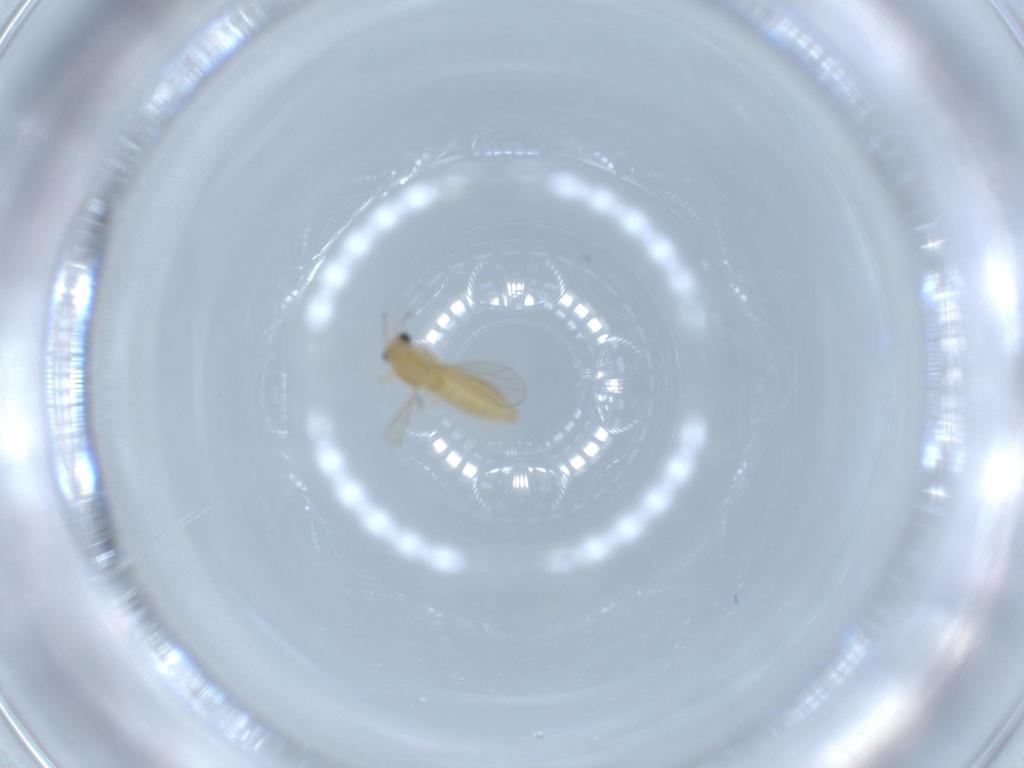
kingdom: Animalia
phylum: Arthropoda
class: Insecta
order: Diptera
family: Chironomidae
